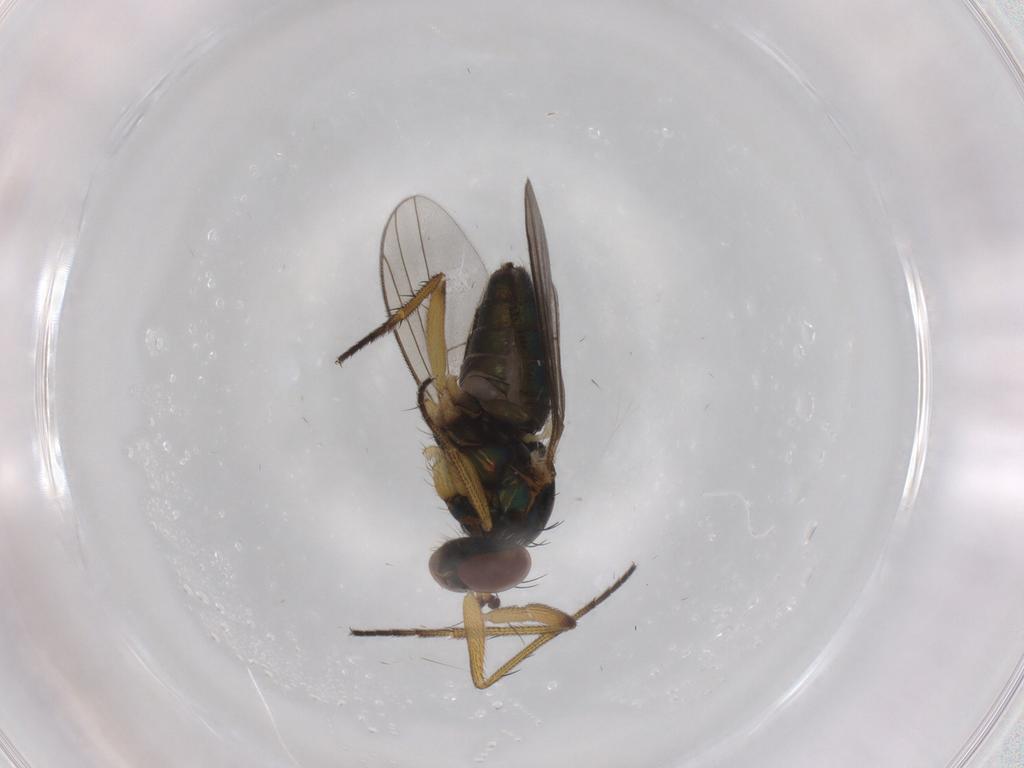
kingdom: Animalia
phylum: Arthropoda
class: Insecta
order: Diptera
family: Dolichopodidae
